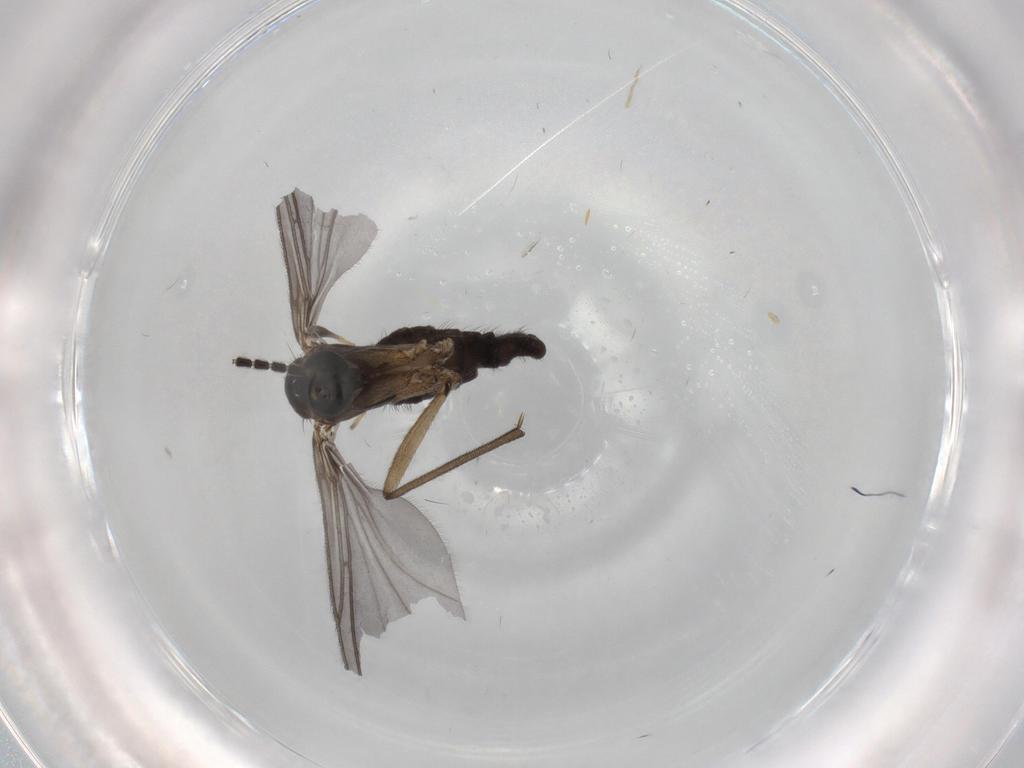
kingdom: Animalia
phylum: Arthropoda
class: Insecta
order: Diptera
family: Sciaridae
